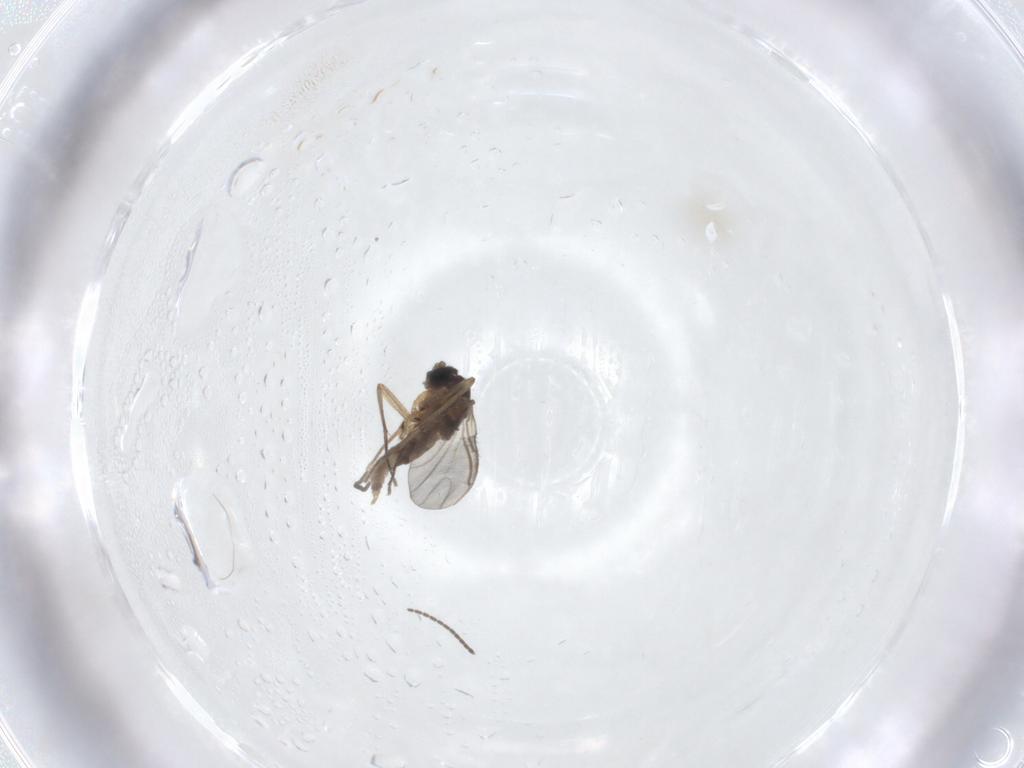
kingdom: Animalia
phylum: Arthropoda
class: Insecta
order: Diptera
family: Sciaridae
